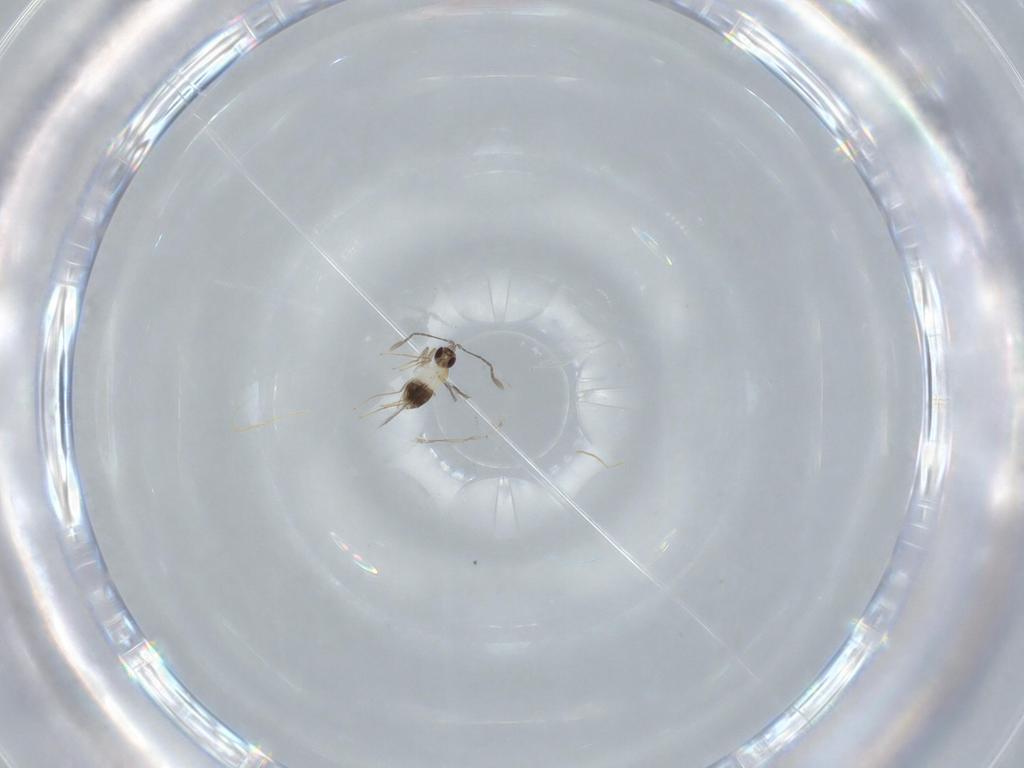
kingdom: Animalia
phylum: Arthropoda
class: Insecta
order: Hymenoptera
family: Mymaridae
